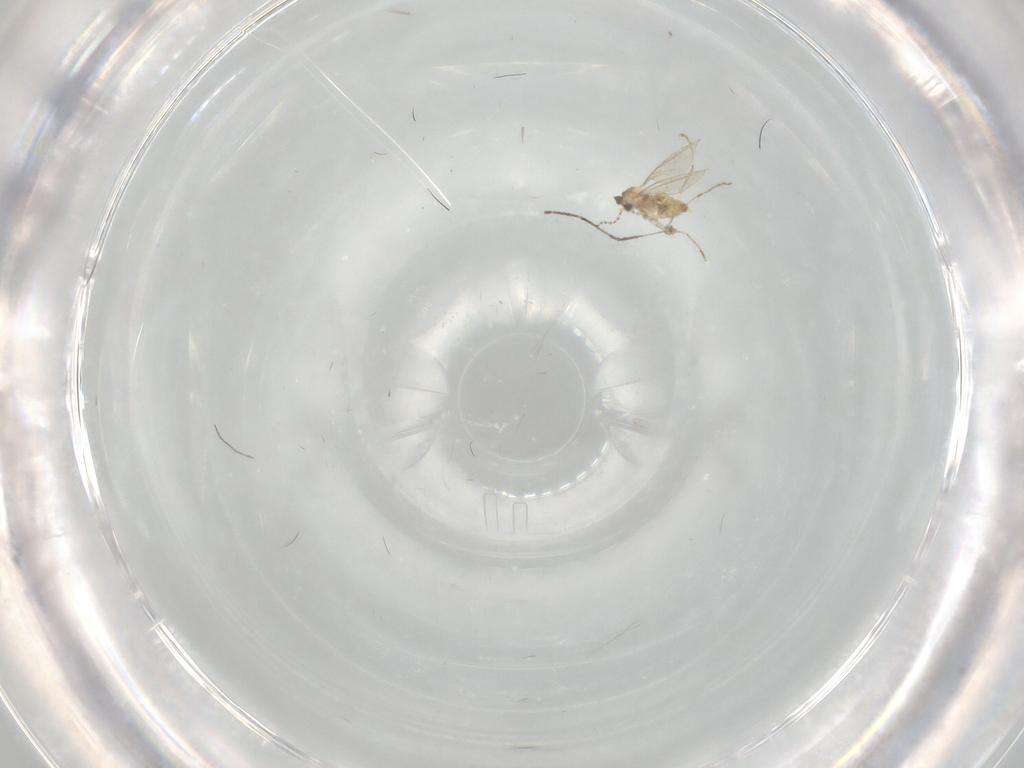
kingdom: Animalia
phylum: Arthropoda
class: Insecta
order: Diptera
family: Cecidomyiidae
